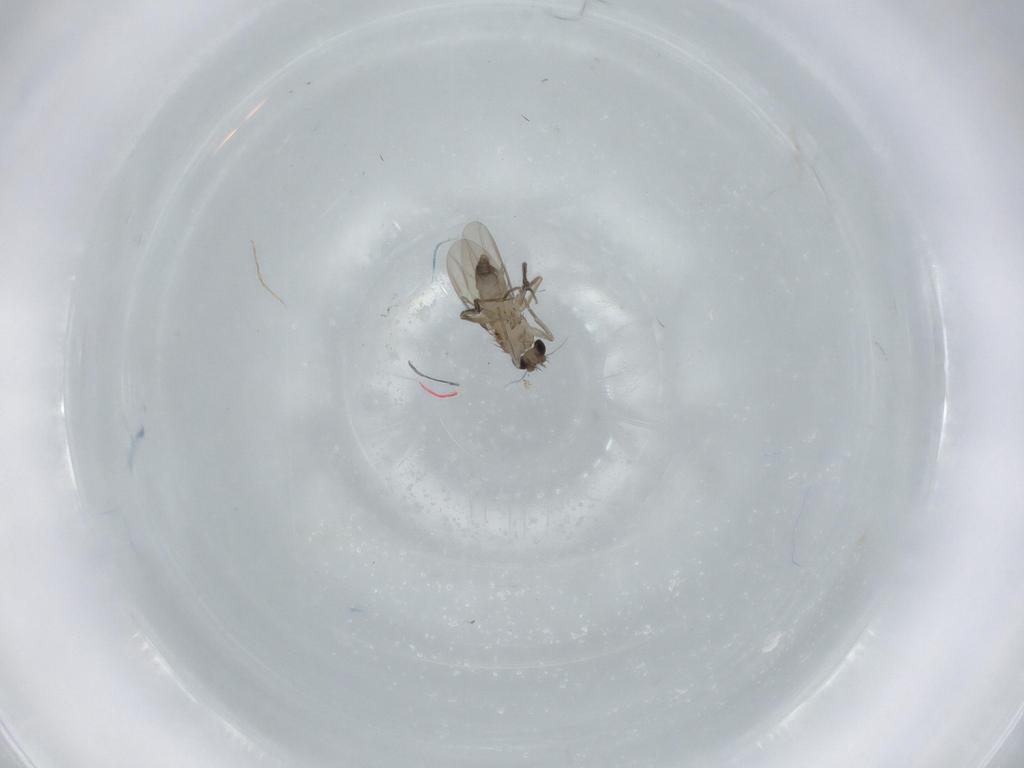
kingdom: Animalia
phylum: Arthropoda
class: Insecta
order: Diptera
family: Phoridae
